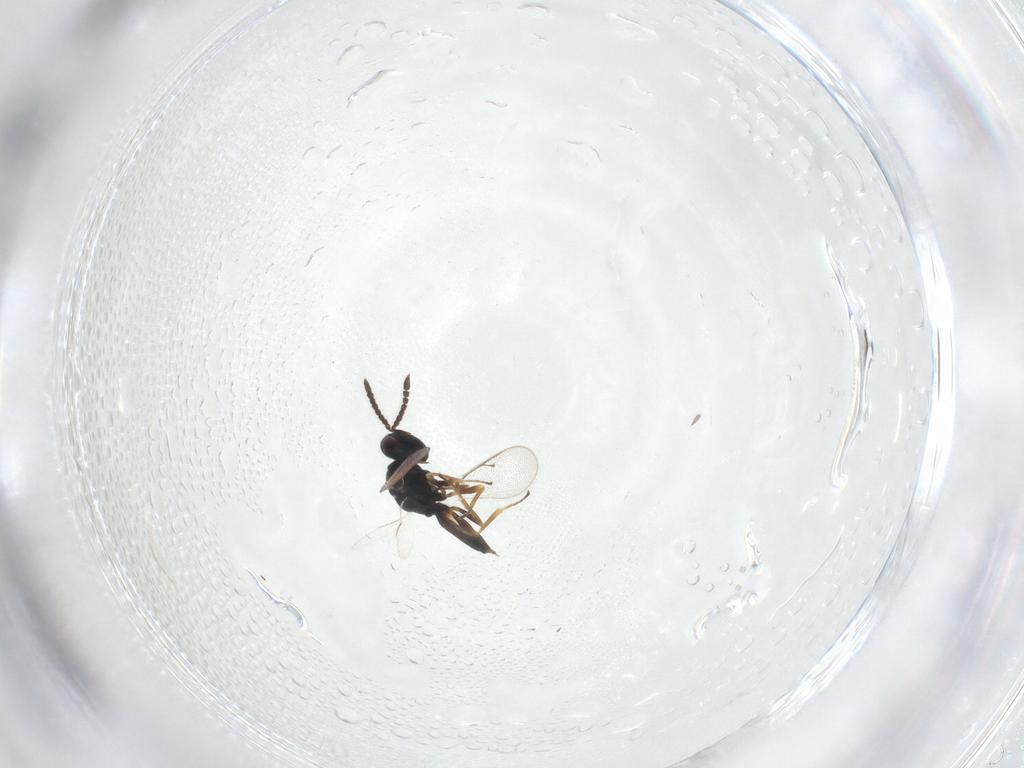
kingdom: Animalia
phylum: Arthropoda
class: Insecta
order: Hymenoptera
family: Pteromalidae
